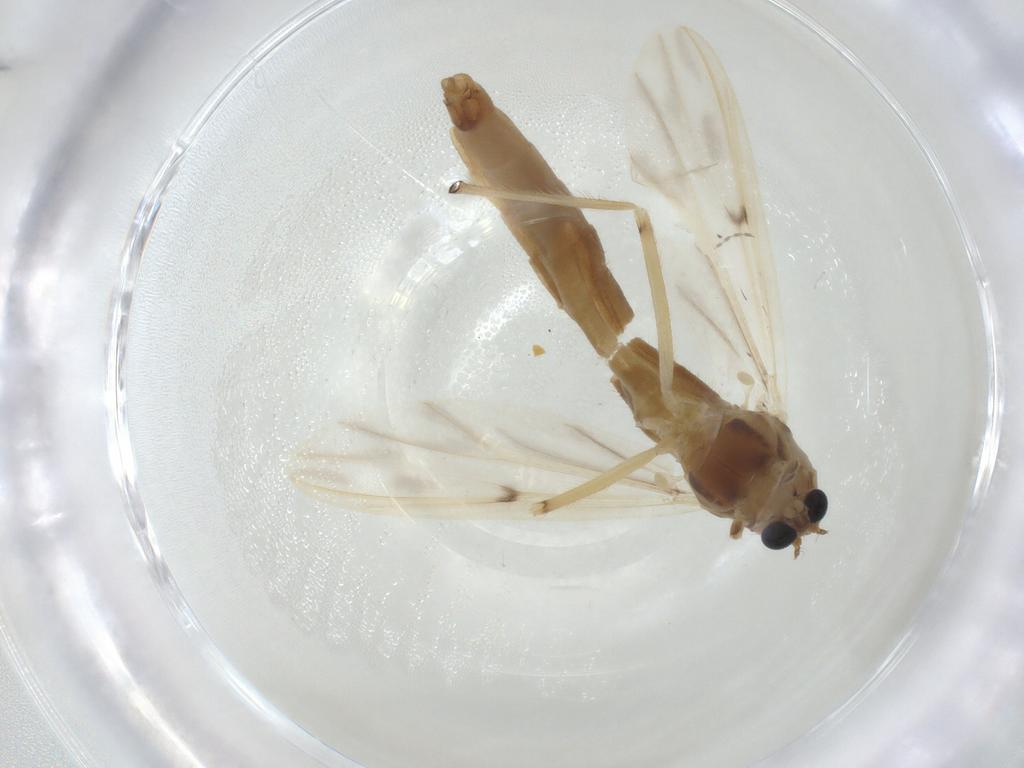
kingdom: Animalia
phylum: Arthropoda
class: Insecta
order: Diptera
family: Chironomidae
